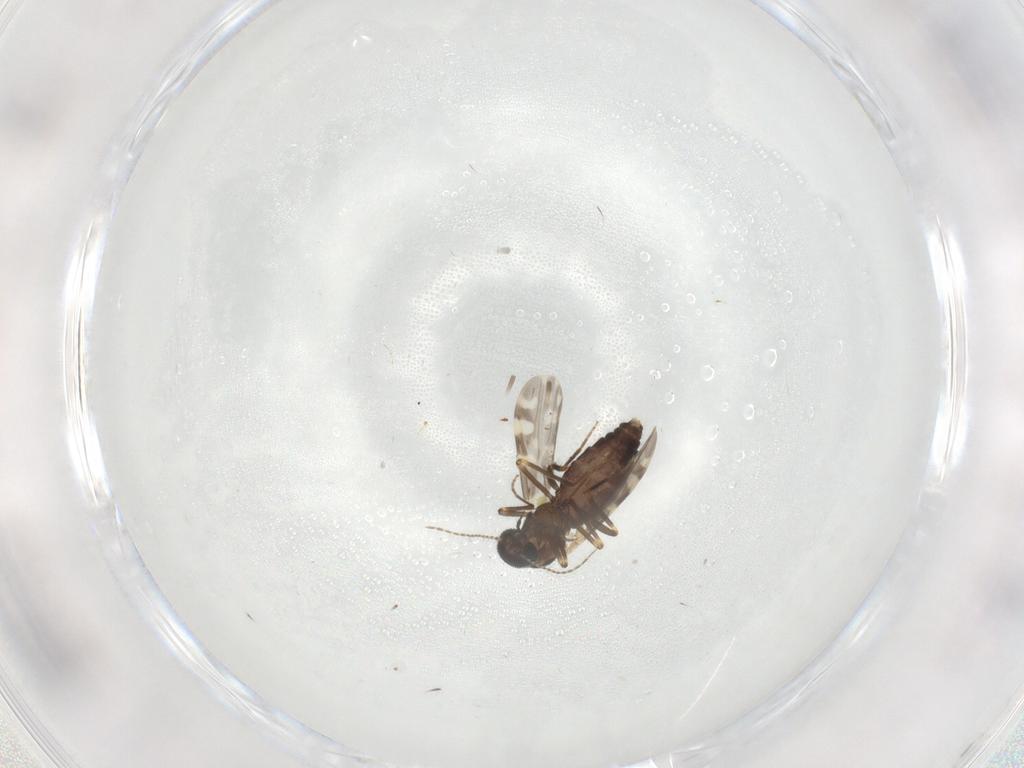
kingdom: Animalia
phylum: Arthropoda
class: Insecta
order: Diptera
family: Ceratopogonidae
